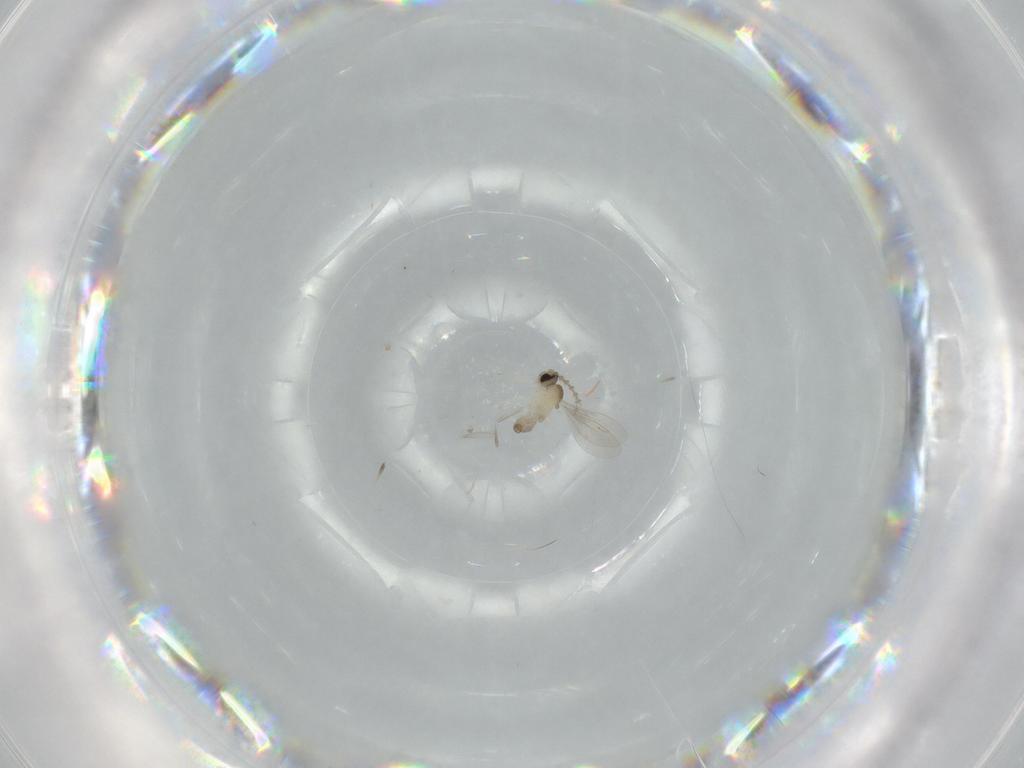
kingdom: Animalia
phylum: Arthropoda
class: Insecta
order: Diptera
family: Cecidomyiidae
